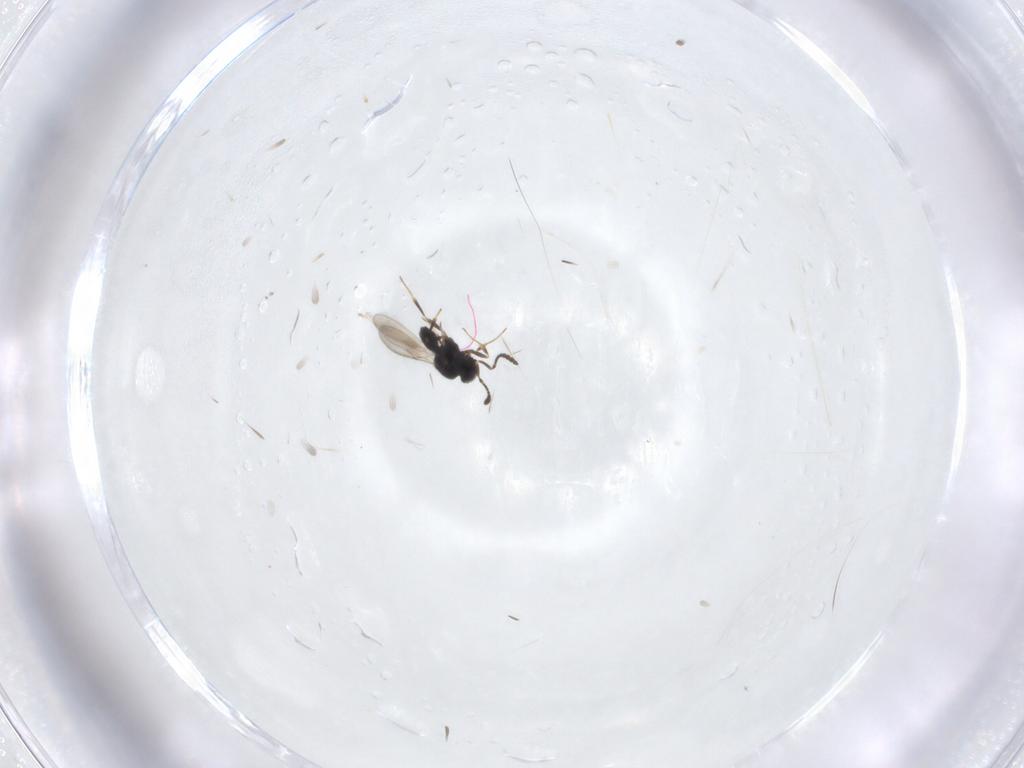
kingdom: Animalia
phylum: Arthropoda
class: Insecta
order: Hymenoptera
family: Scelionidae
